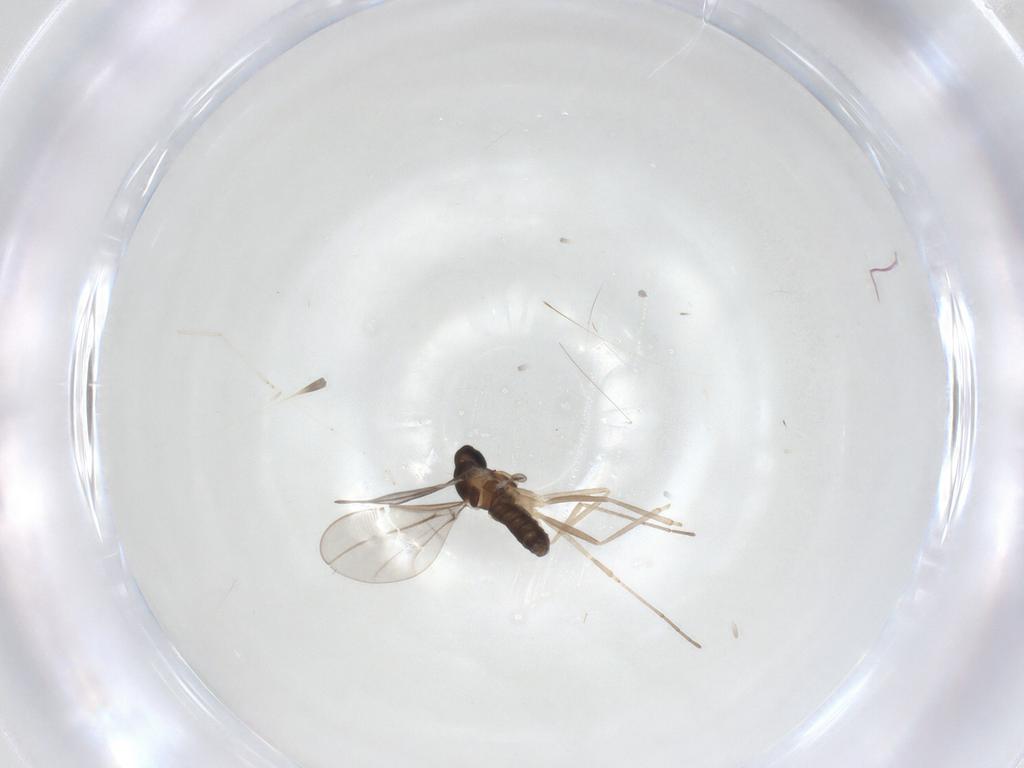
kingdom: Animalia
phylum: Arthropoda
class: Insecta
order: Diptera
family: Cecidomyiidae
